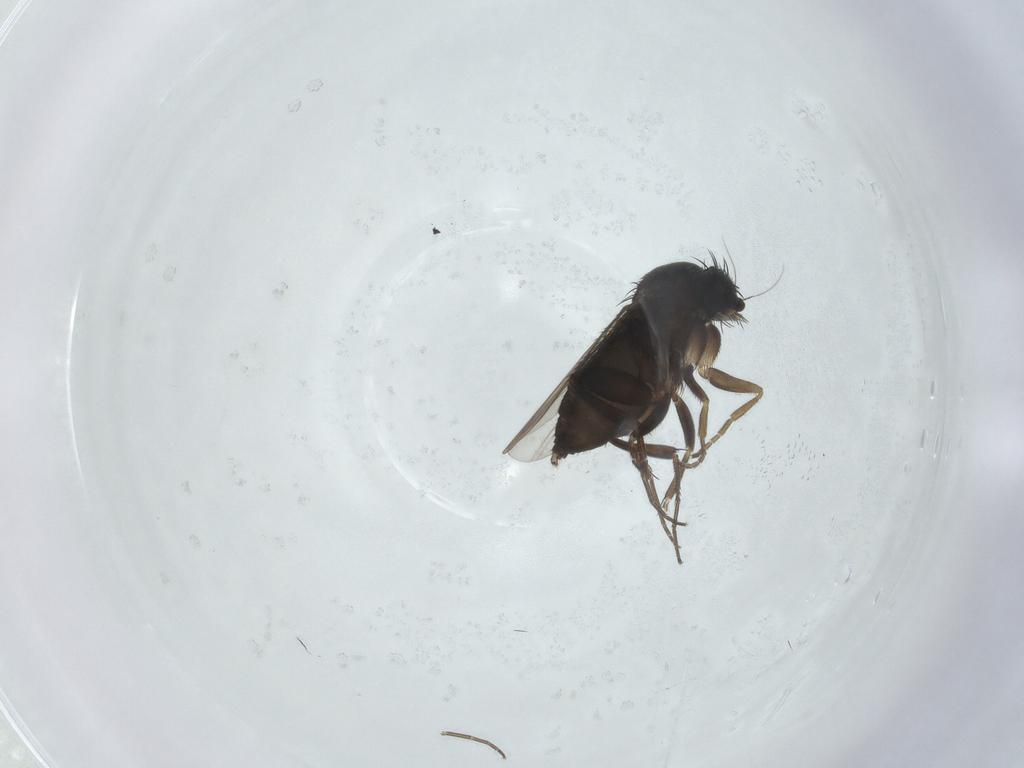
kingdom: Animalia
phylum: Arthropoda
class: Insecta
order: Diptera
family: Phoridae
